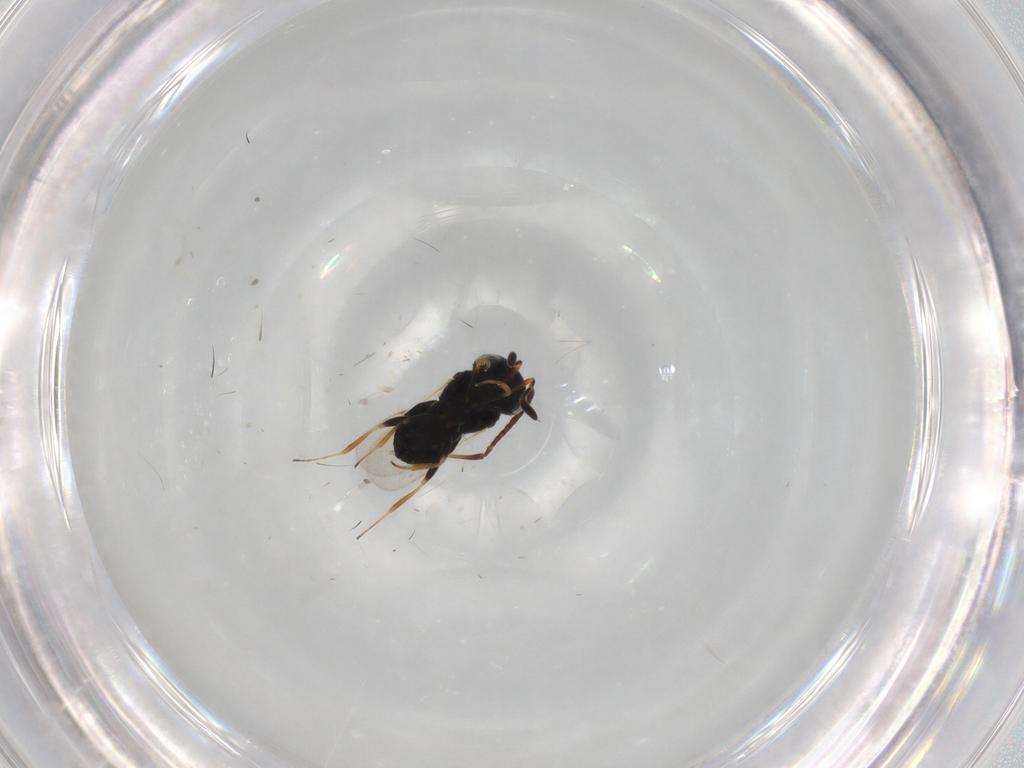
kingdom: Animalia
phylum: Arthropoda
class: Insecta
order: Hymenoptera
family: Formicidae
